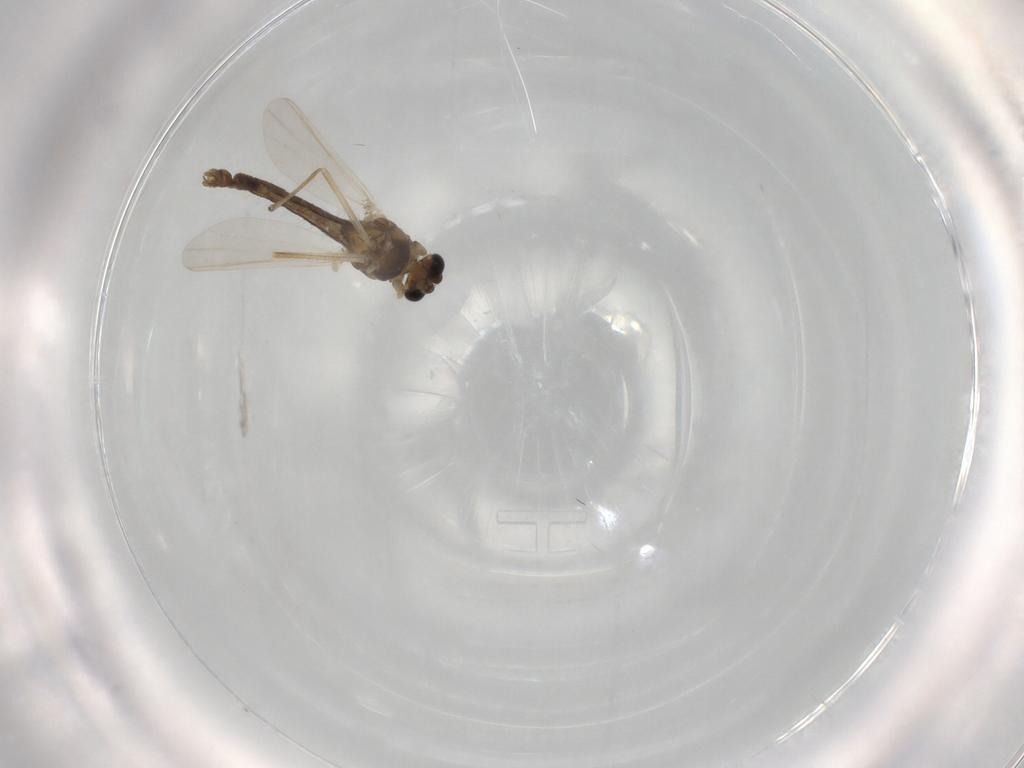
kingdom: Animalia
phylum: Arthropoda
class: Insecta
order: Diptera
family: Chironomidae
